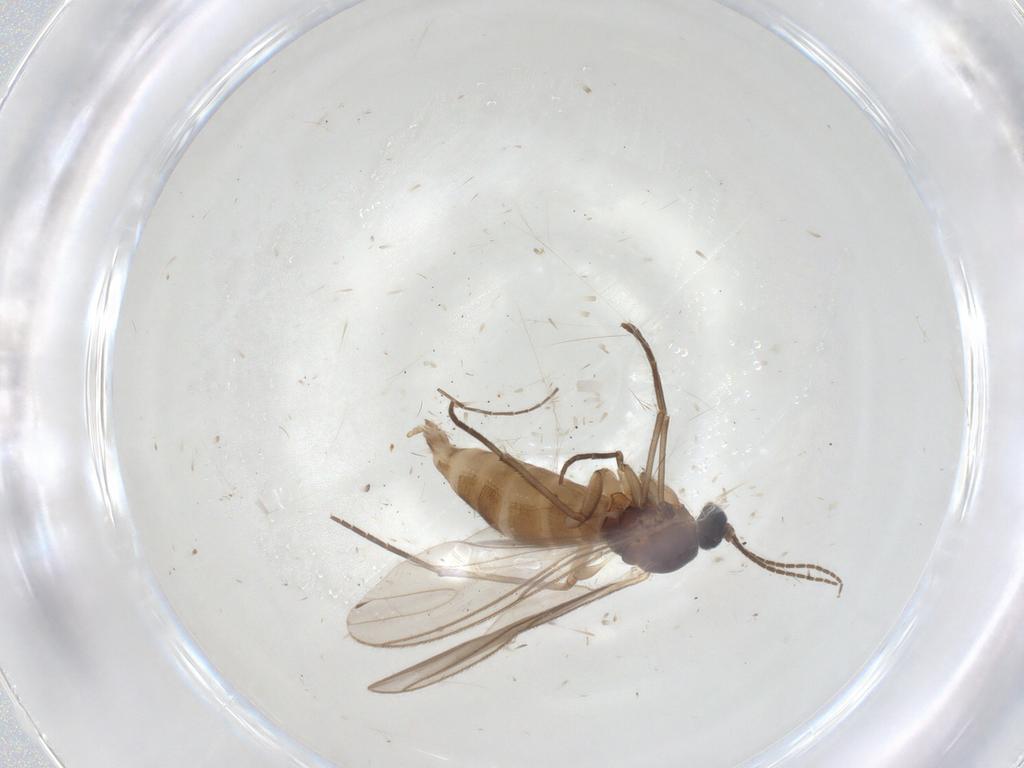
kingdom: Animalia
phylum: Arthropoda
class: Insecta
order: Diptera
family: Sciaridae
